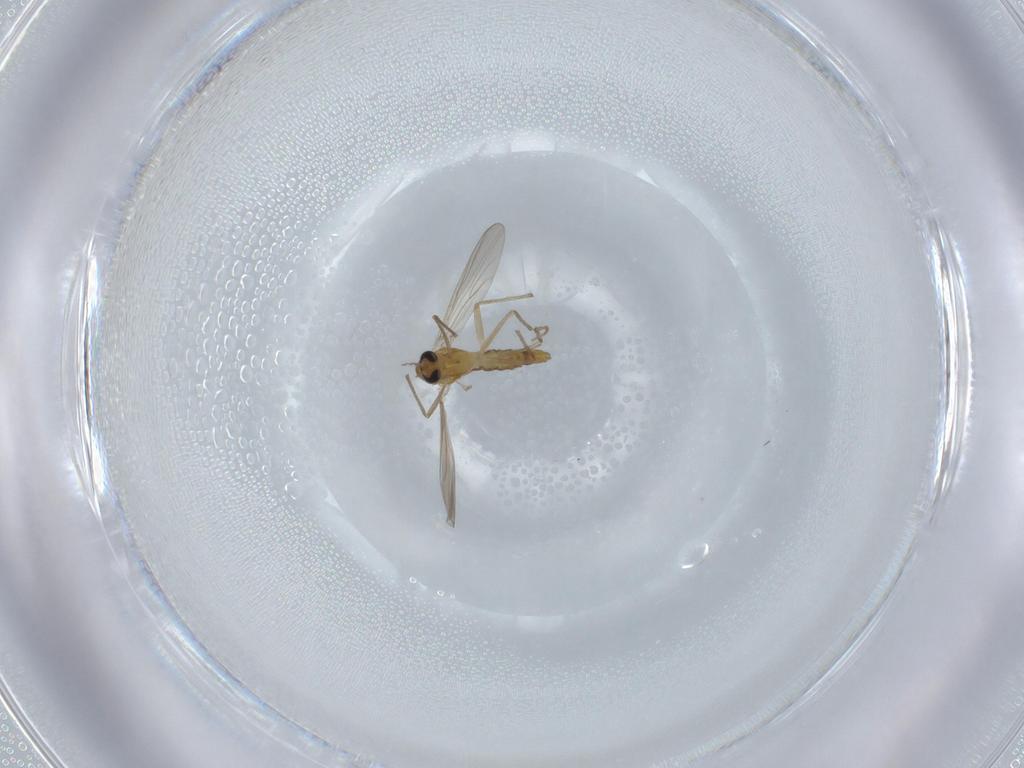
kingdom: Animalia
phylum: Arthropoda
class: Insecta
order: Diptera
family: Chironomidae
